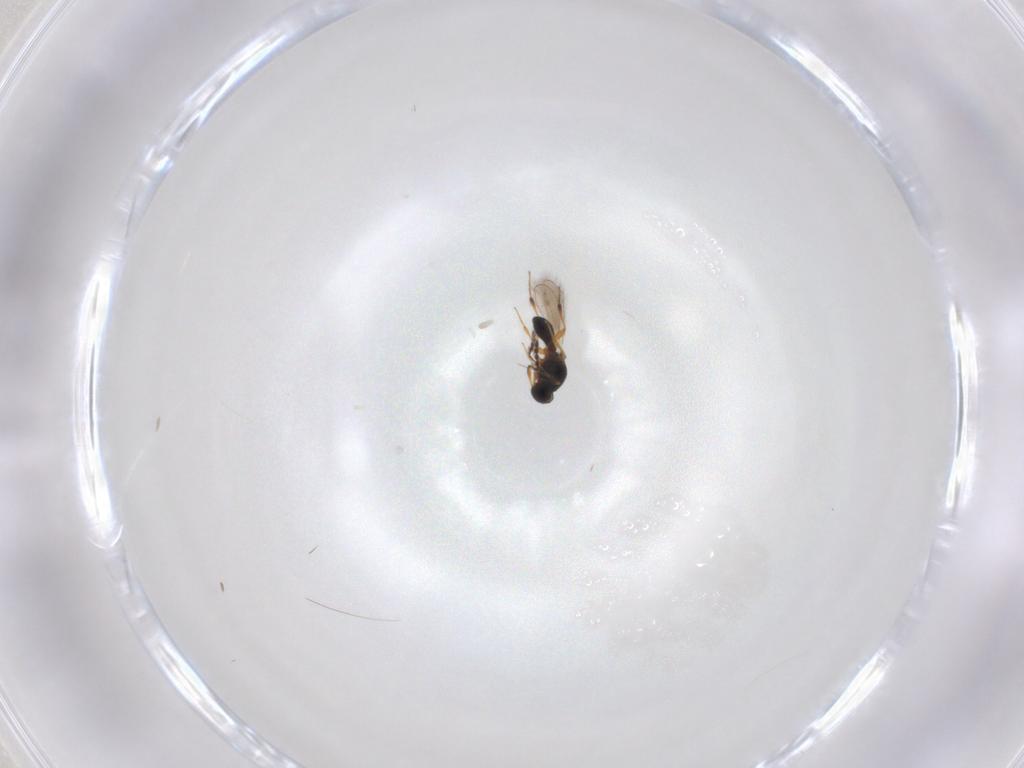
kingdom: Animalia
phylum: Arthropoda
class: Insecta
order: Hymenoptera
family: Platygastridae
